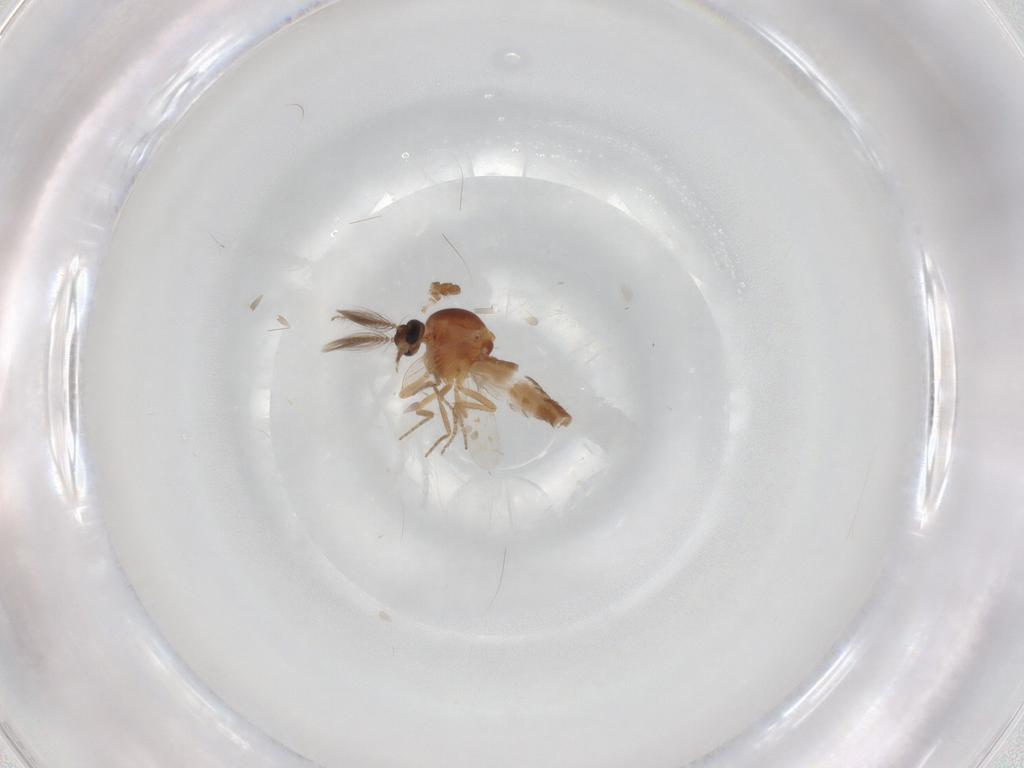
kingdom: Animalia
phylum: Arthropoda
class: Insecta
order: Diptera
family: Ceratopogonidae
